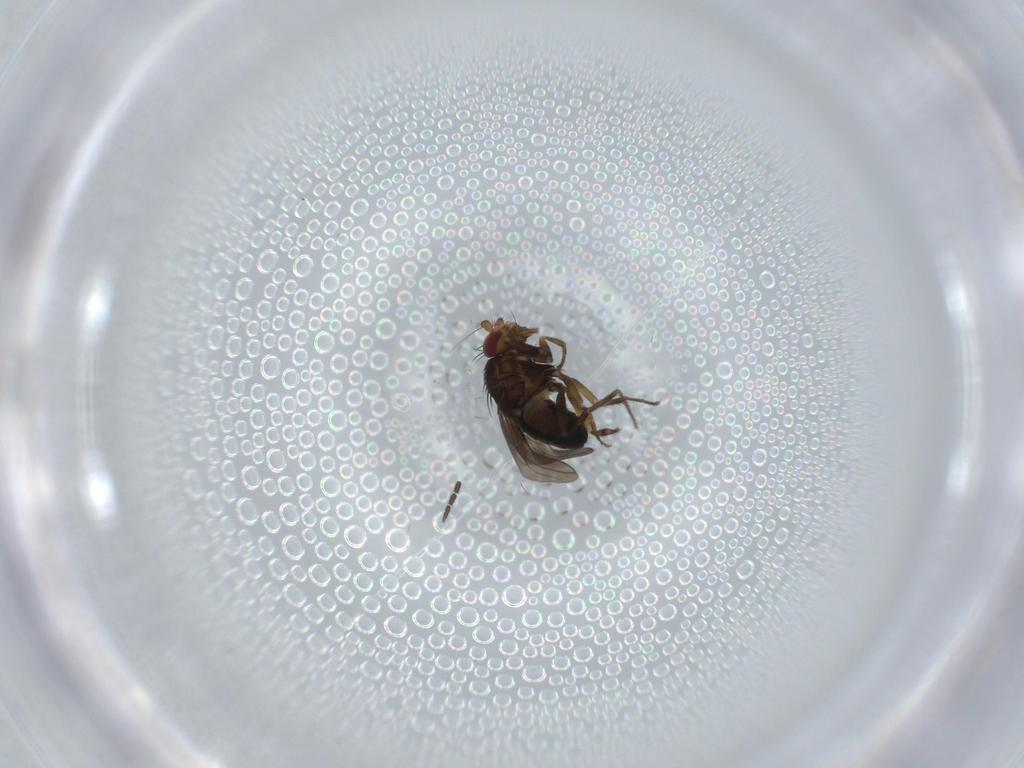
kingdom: Animalia
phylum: Arthropoda
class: Insecta
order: Diptera
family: Sciaridae
